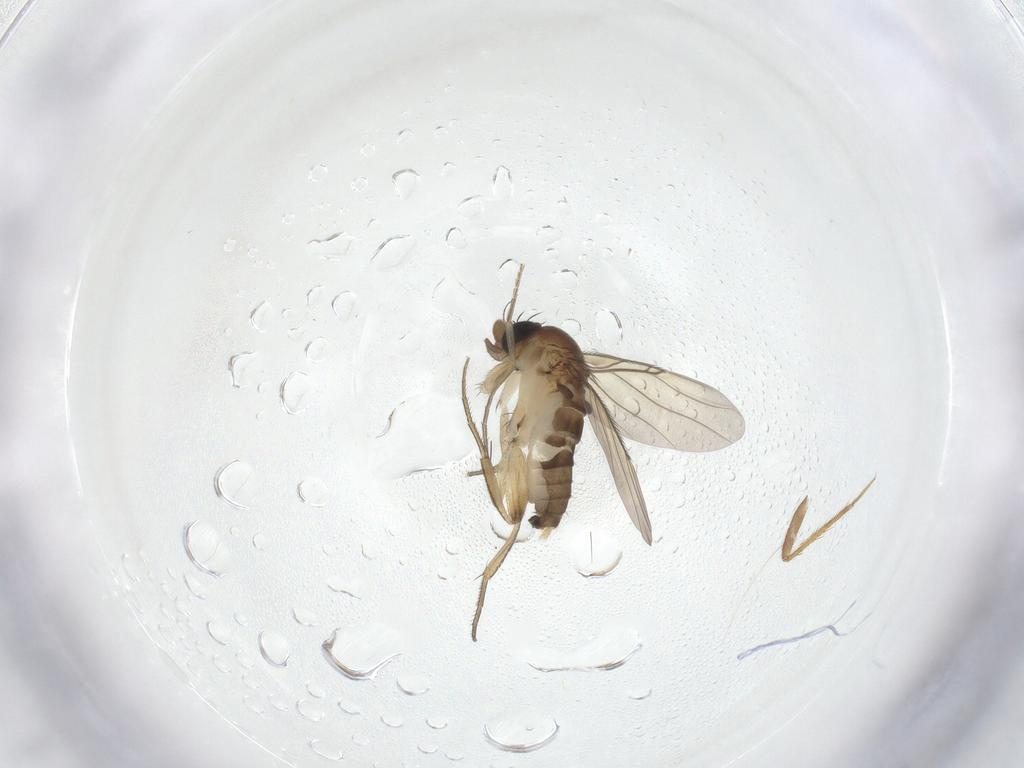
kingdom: Animalia
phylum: Arthropoda
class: Insecta
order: Diptera
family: Phoridae
